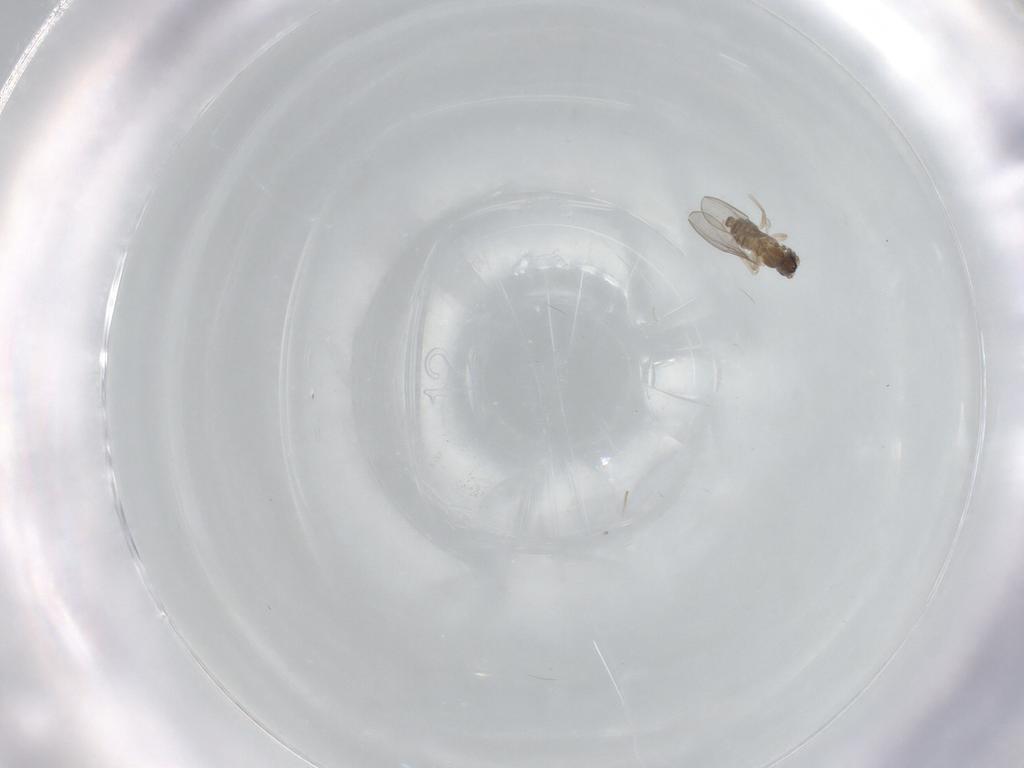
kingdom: Animalia
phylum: Arthropoda
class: Insecta
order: Diptera
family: Cecidomyiidae
